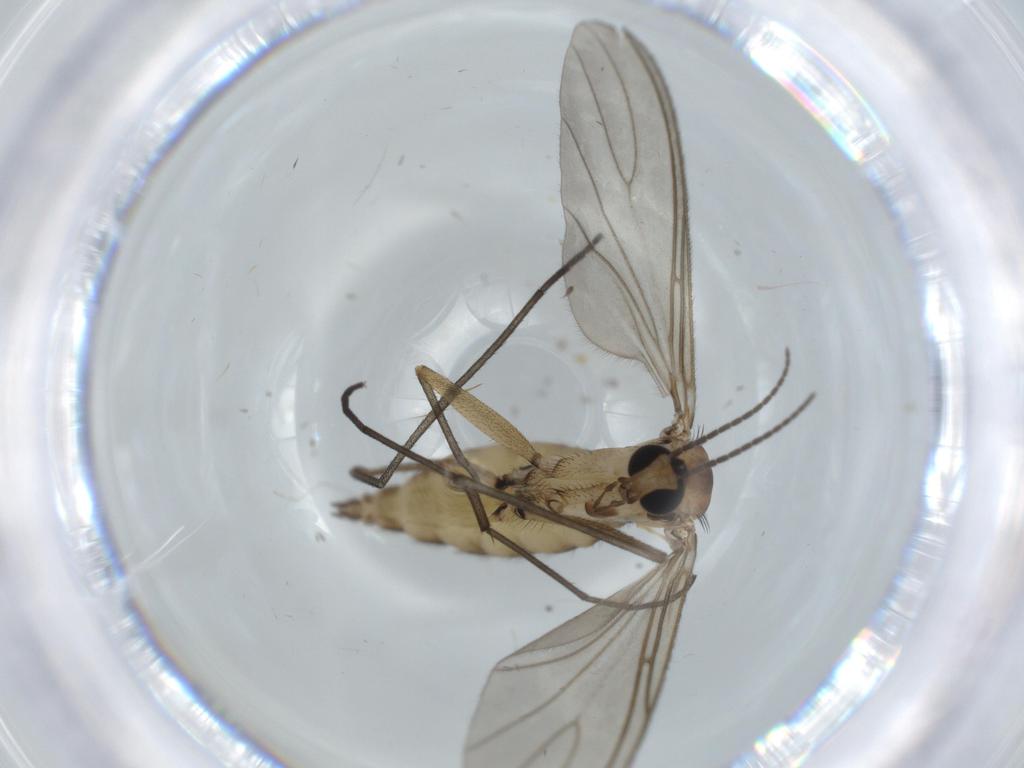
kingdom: Animalia
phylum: Arthropoda
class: Insecta
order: Diptera
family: Sciaridae
